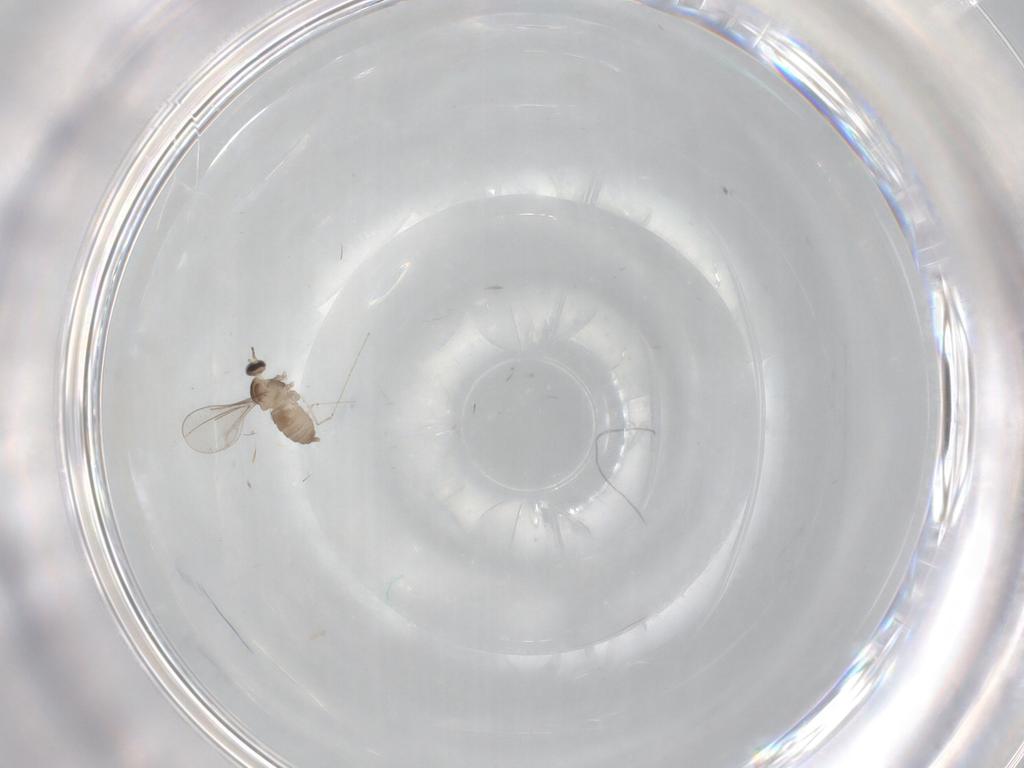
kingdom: Animalia
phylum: Arthropoda
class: Insecta
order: Diptera
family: Cecidomyiidae
